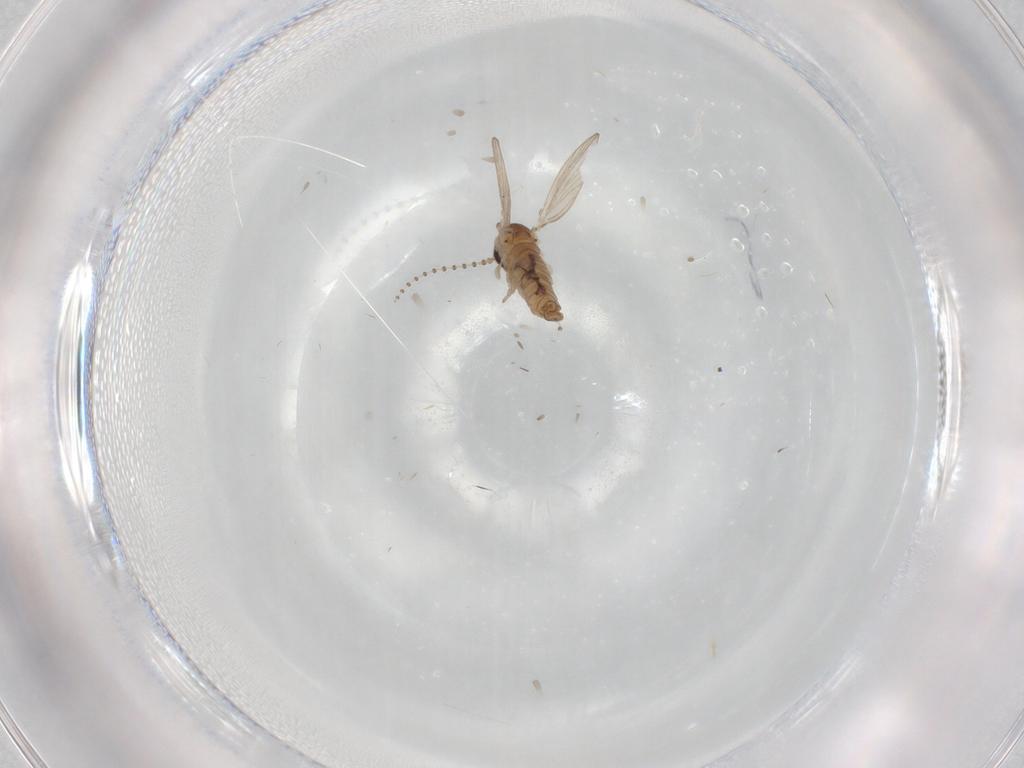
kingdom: Animalia
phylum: Arthropoda
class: Insecta
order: Diptera
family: Psychodidae
